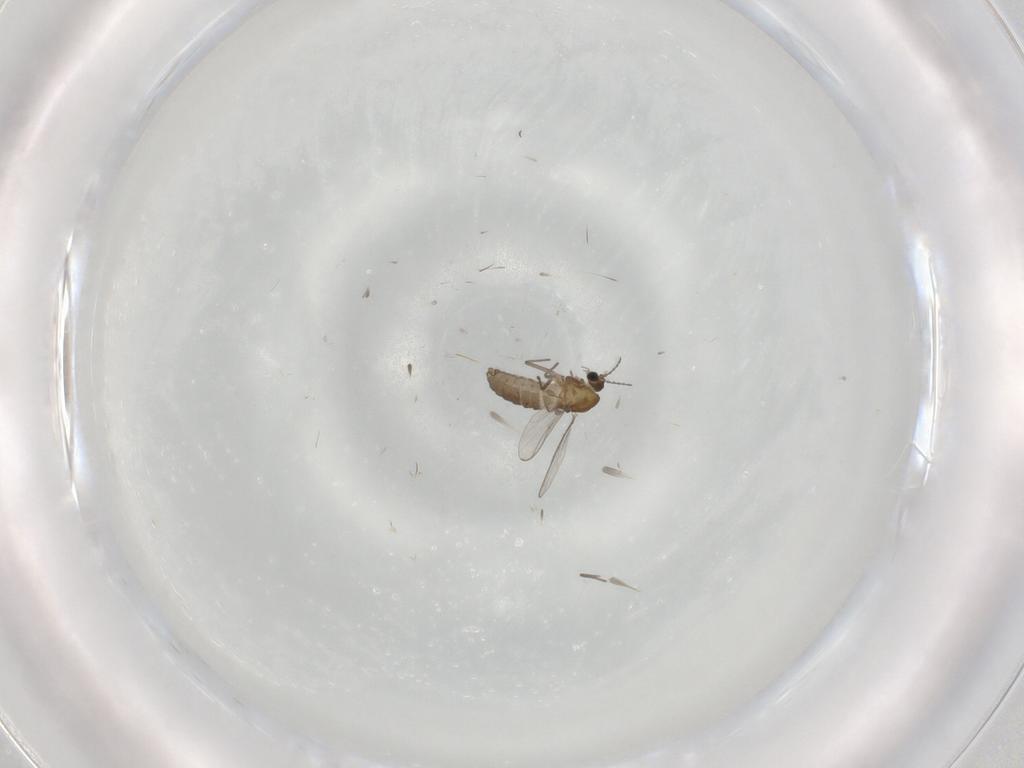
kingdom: Animalia
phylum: Arthropoda
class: Insecta
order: Diptera
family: Chironomidae
